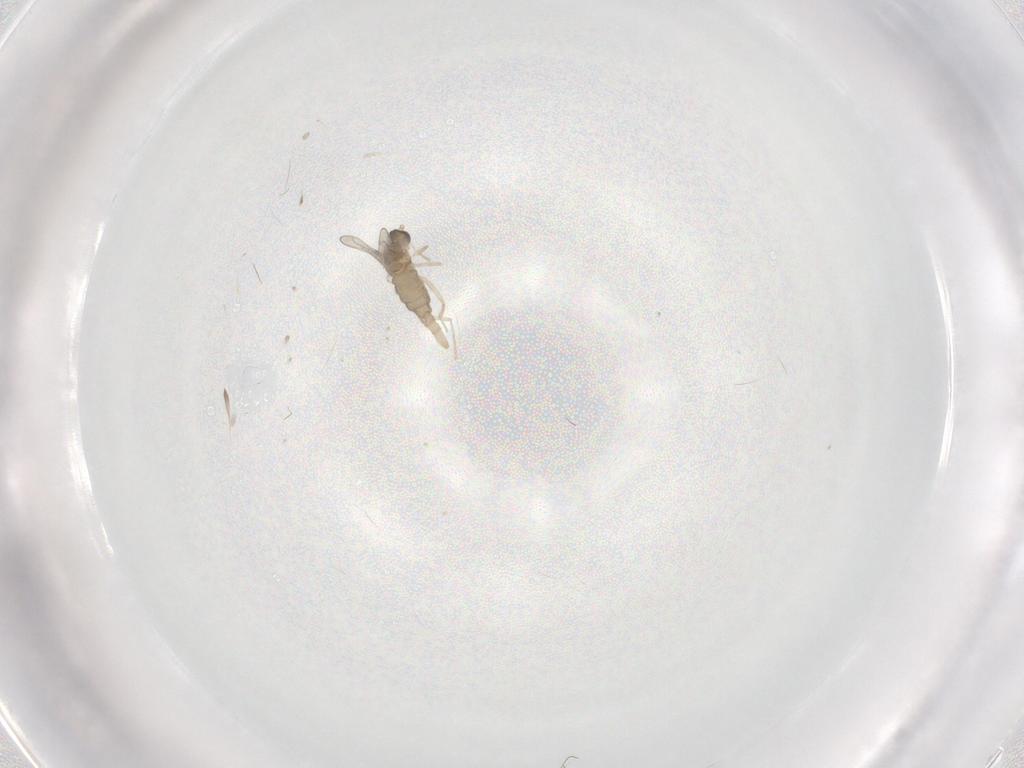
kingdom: Animalia
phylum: Arthropoda
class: Insecta
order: Diptera
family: Cecidomyiidae
